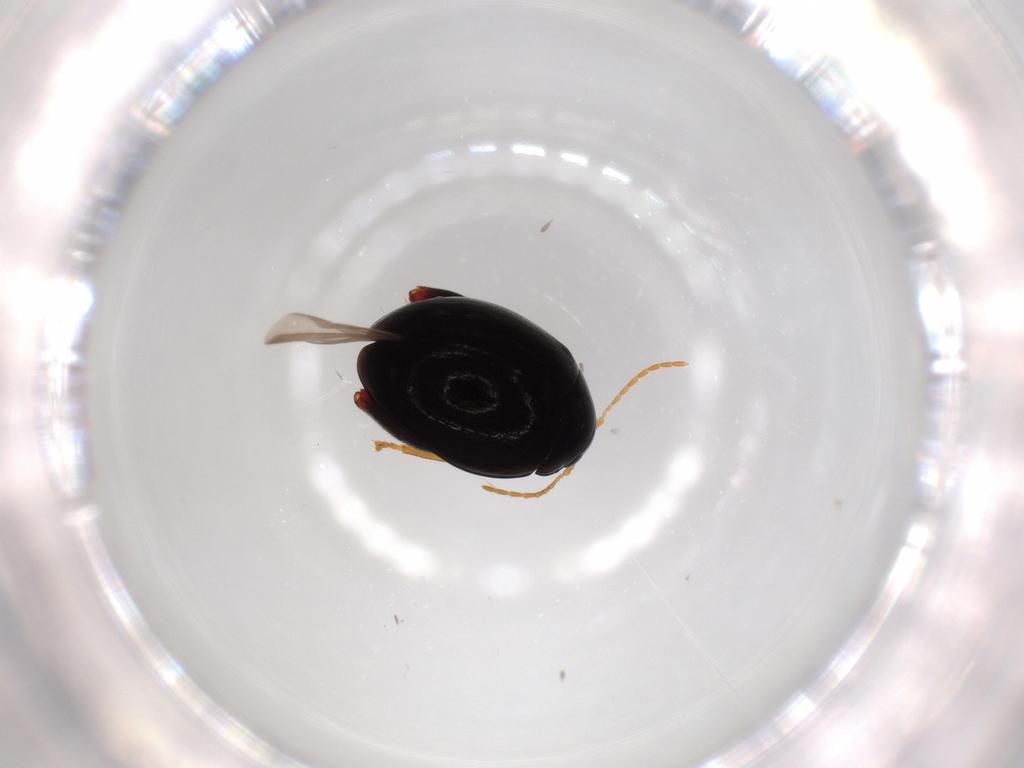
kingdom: Animalia
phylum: Arthropoda
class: Insecta
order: Coleoptera
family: Chrysomelidae
